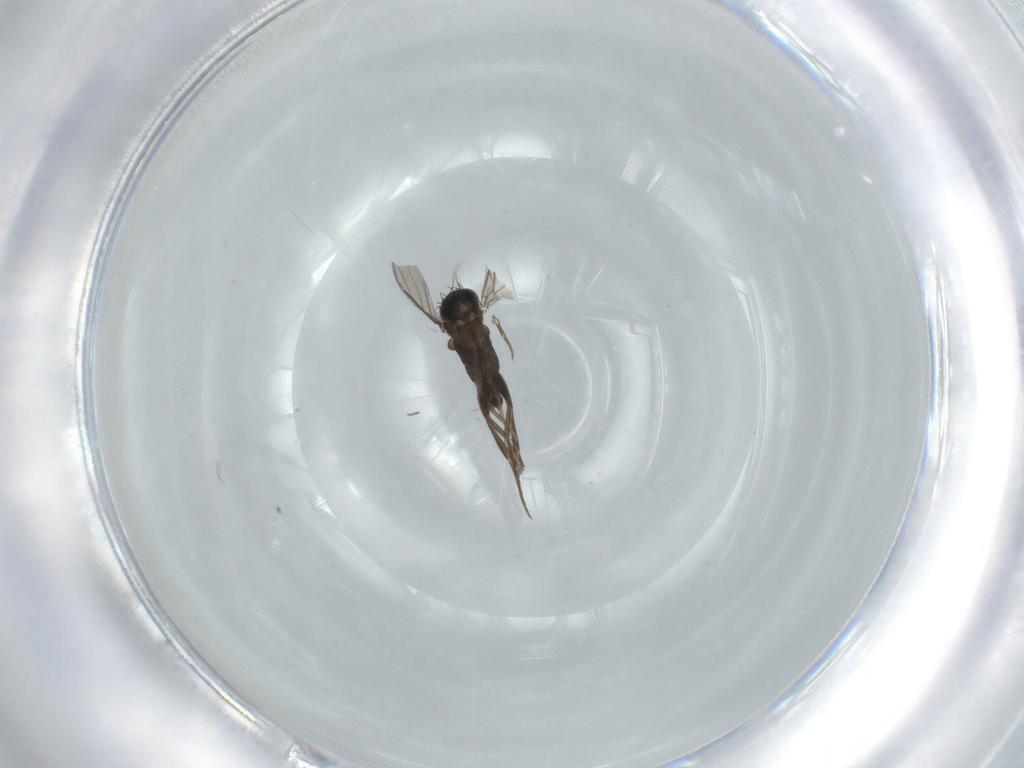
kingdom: Animalia
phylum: Arthropoda
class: Insecta
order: Diptera
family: Phoridae
